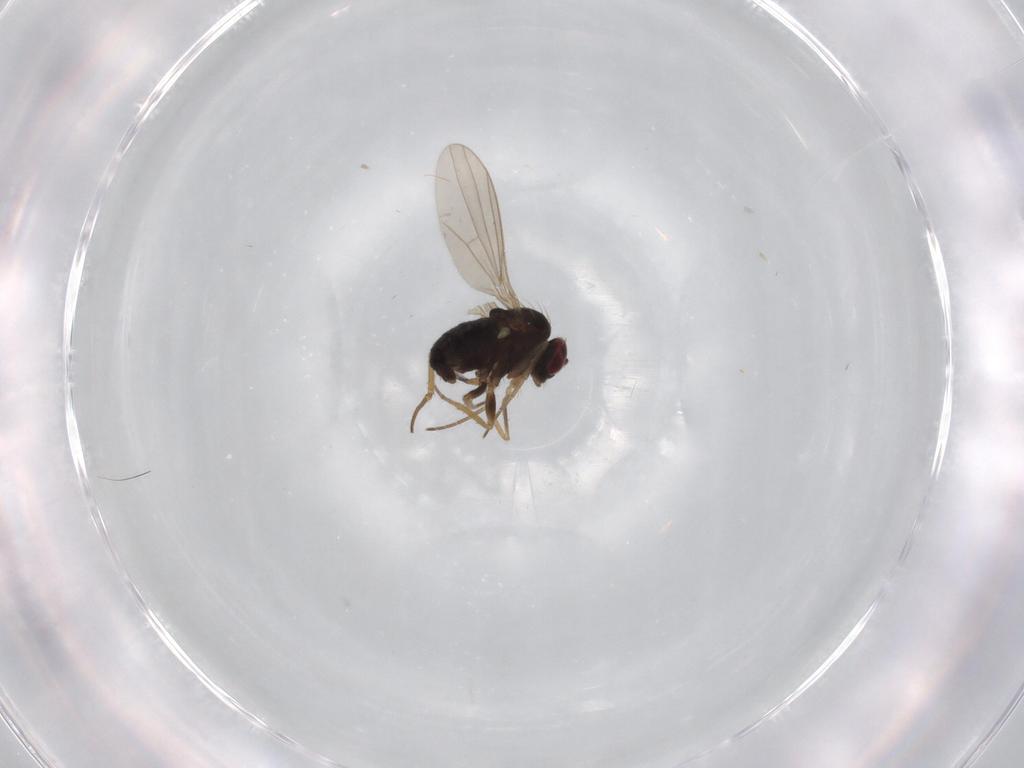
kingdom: Animalia
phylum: Arthropoda
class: Insecta
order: Diptera
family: Dolichopodidae
